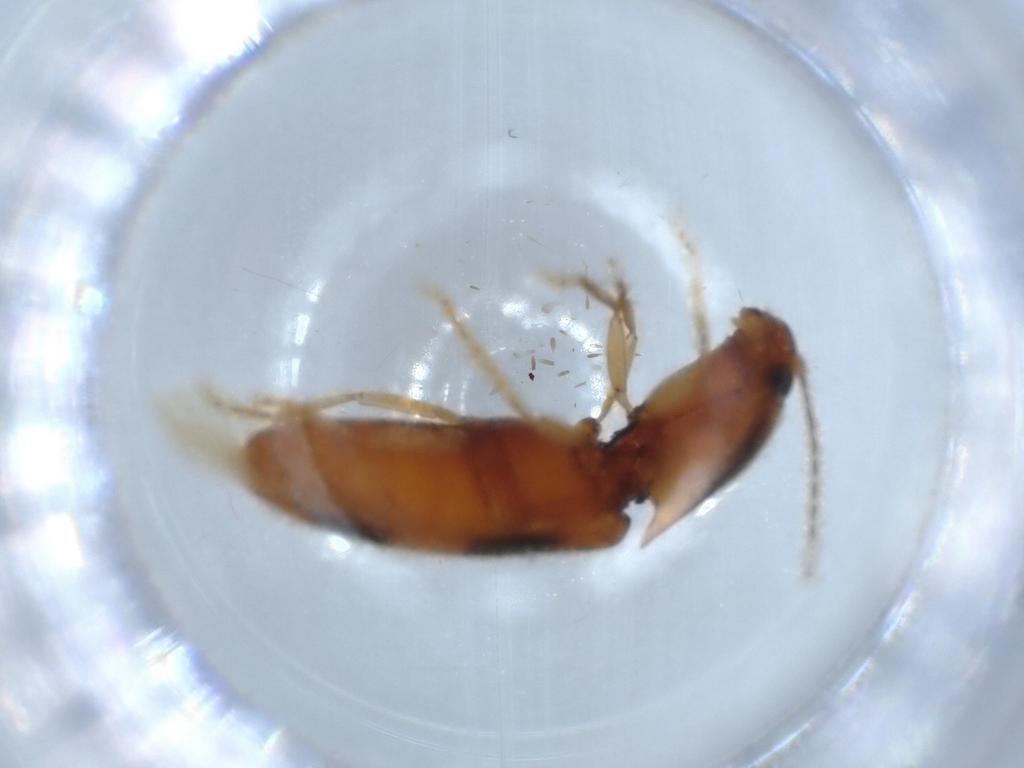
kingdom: Animalia
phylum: Arthropoda
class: Insecta
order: Coleoptera
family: Elateridae
